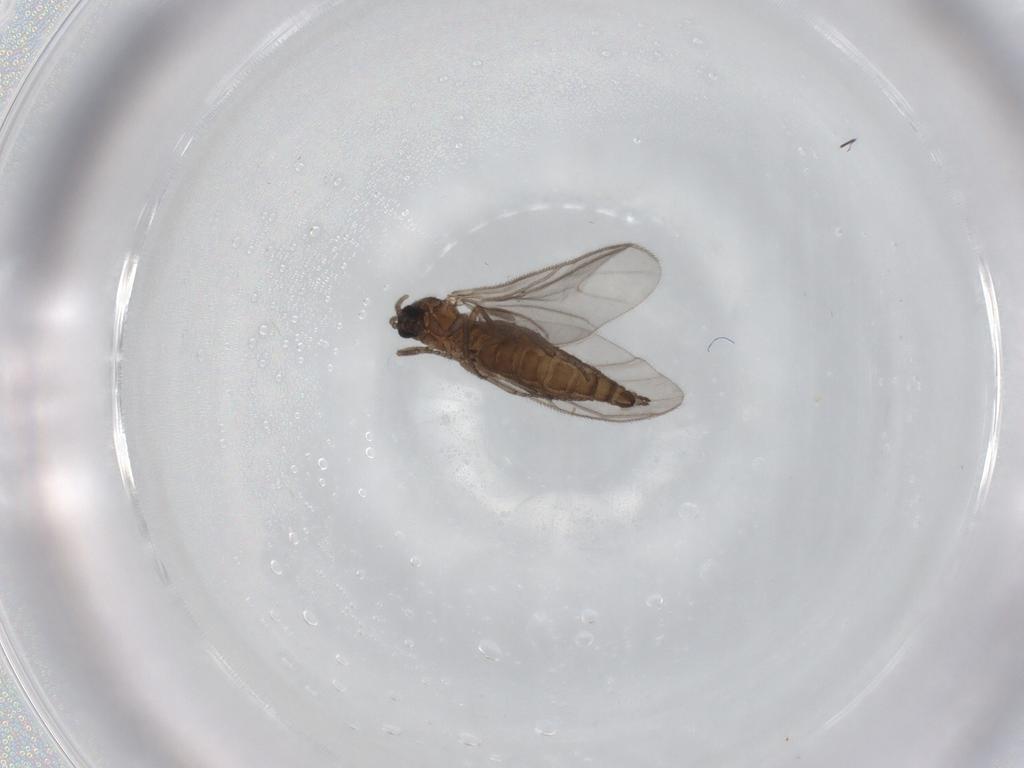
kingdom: Animalia
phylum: Arthropoda
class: Insecta
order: Diptera
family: Sciaridae
